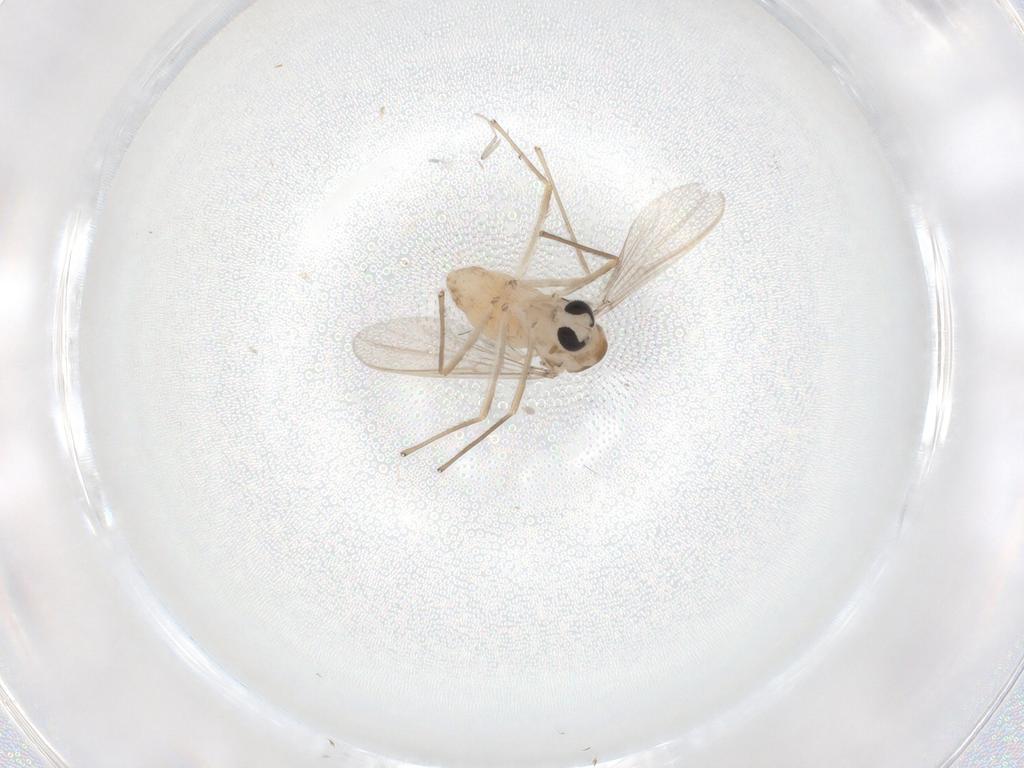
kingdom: Animalia
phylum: Arthropoda
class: Insecta
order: Diptera
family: Chironomidae
